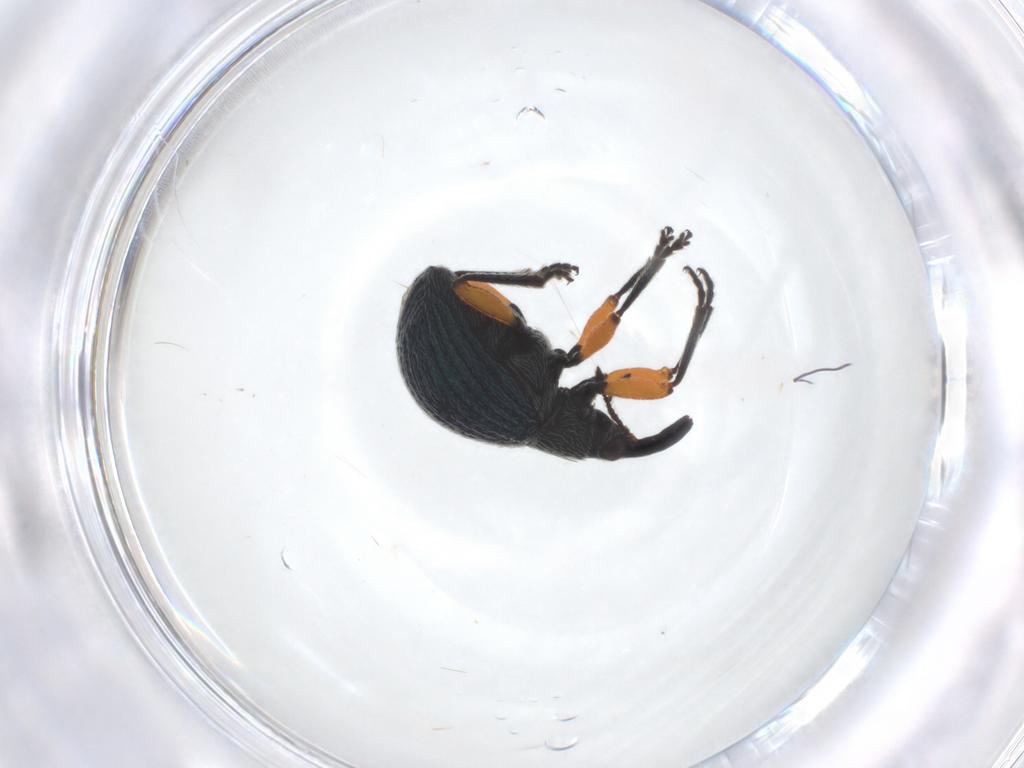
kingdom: Animalia
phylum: Arthropoda
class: Insecta
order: Coleoptera
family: Apionidae
